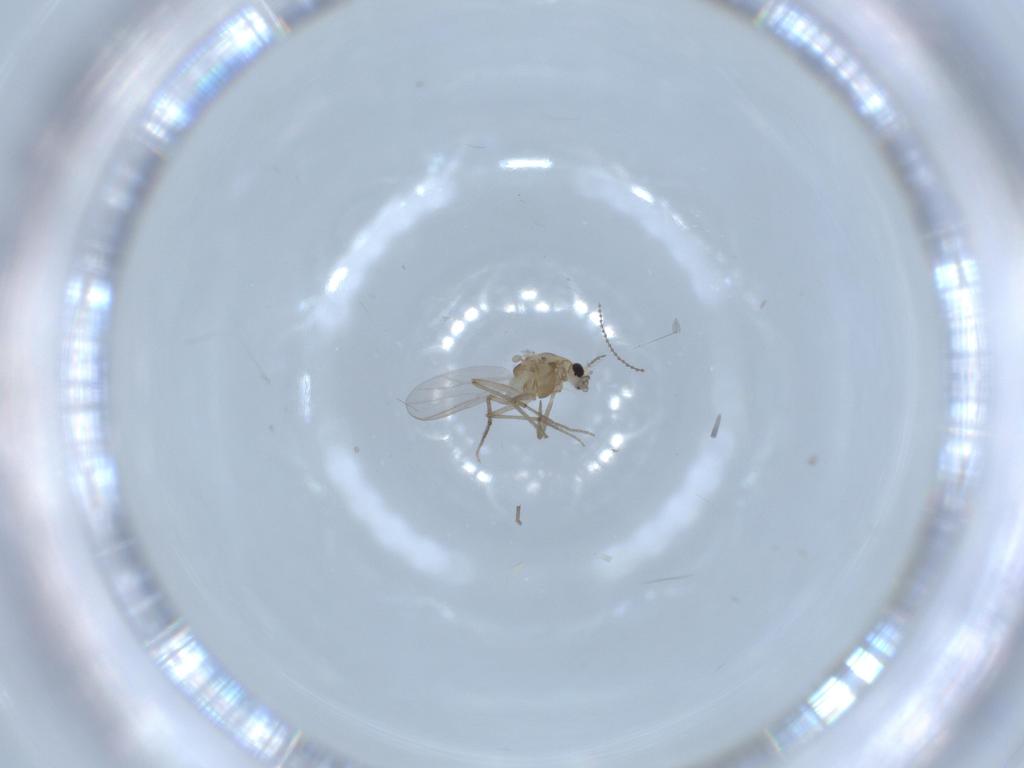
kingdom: Animalia
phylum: Arthropoda
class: Insecta
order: Diptera
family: Chironomidae
